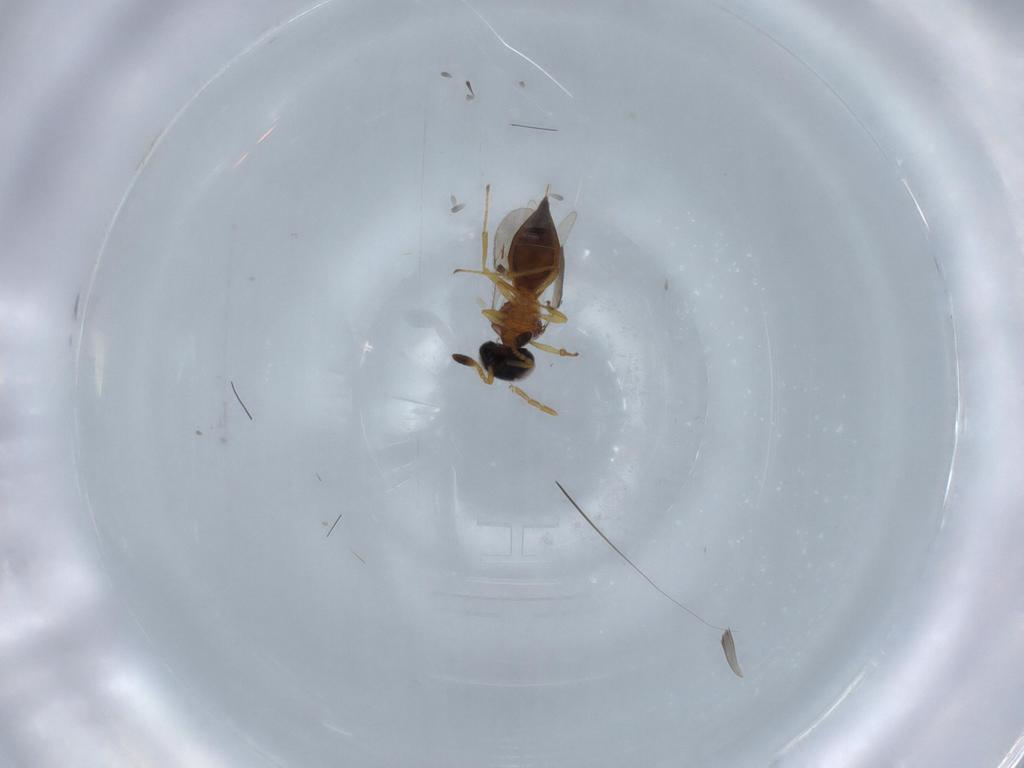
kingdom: Animalia
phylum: Arthropoda
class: Insecta
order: Hymenoptera
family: Formicidae
